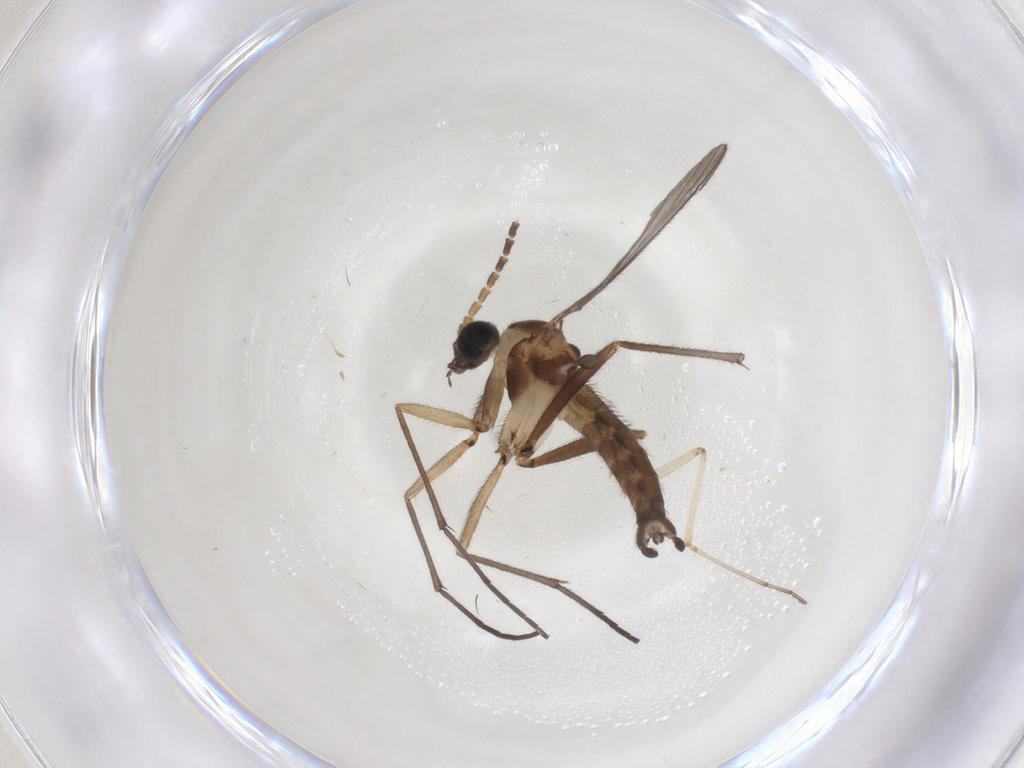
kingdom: Animalia
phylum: Arthropoda
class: Insecta
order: Diptera
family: Sciaridae
